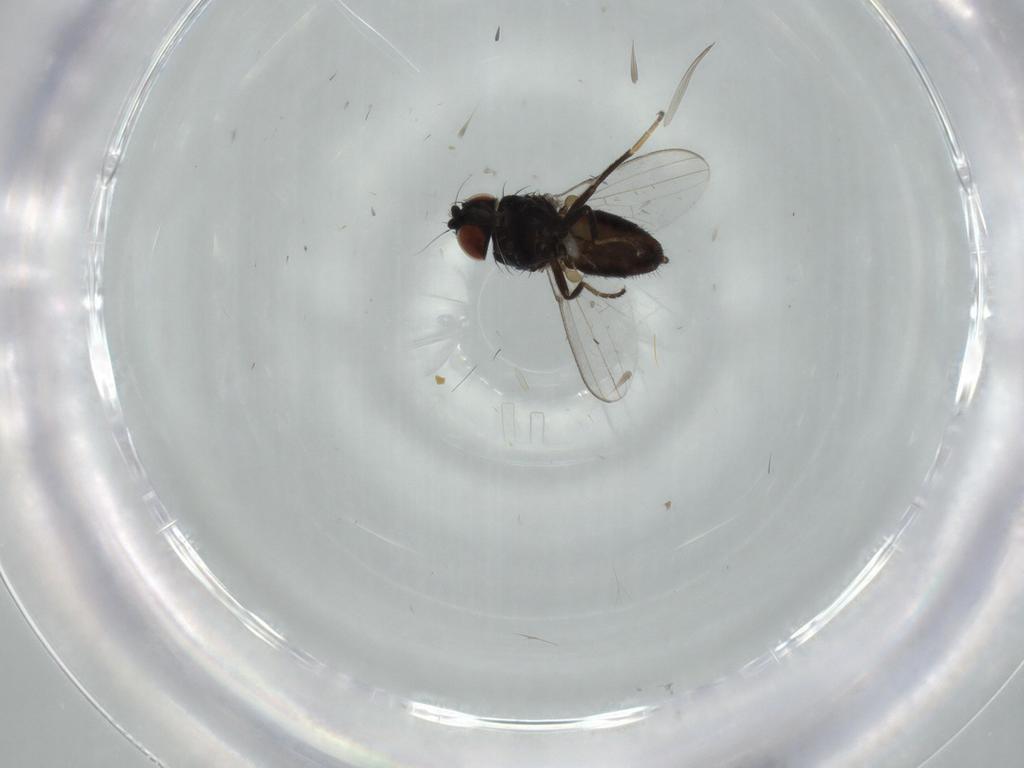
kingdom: Animalia
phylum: Arthropoda
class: Insecta
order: Diptera
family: Milichiidae
